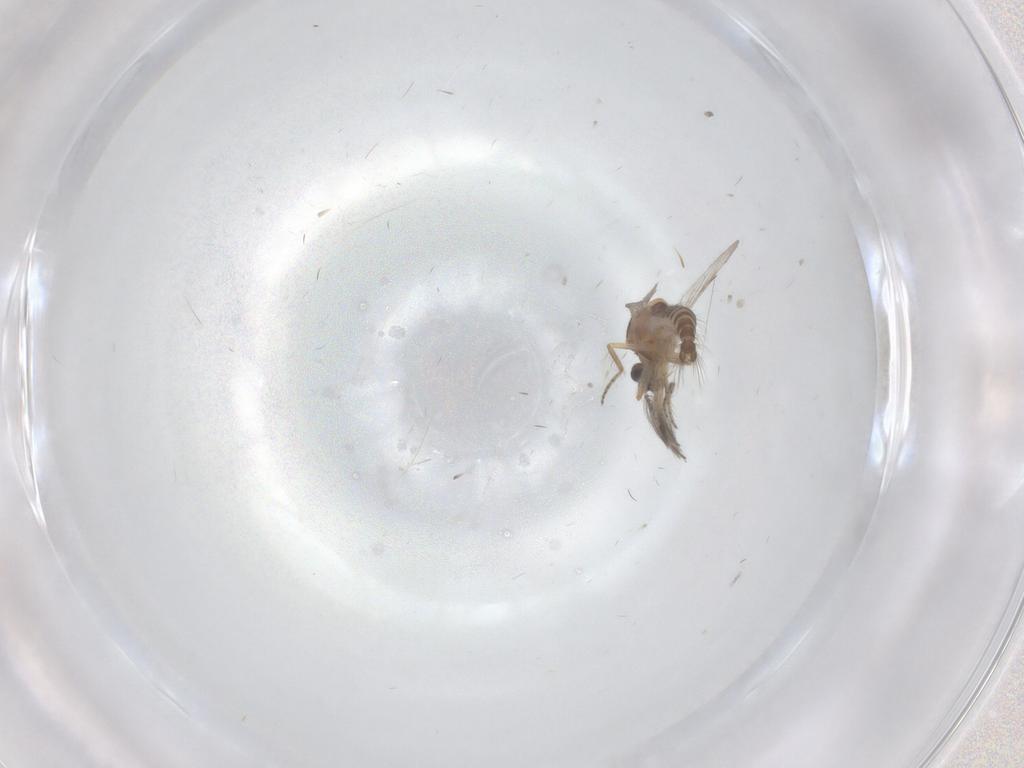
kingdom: Animalia
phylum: Arthropoda
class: Insecta
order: Diptera
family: Ceratopogonidae
